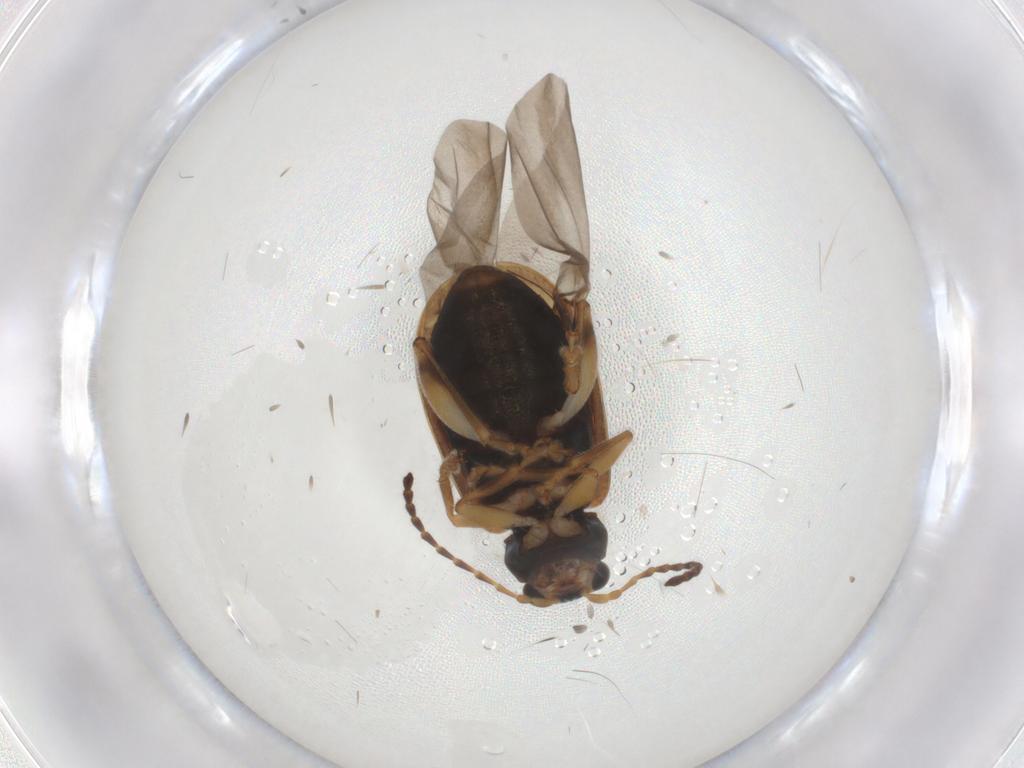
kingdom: Animalia
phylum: Arthropoda
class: Insecta
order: Coleoptera
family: Chrysomelidae
